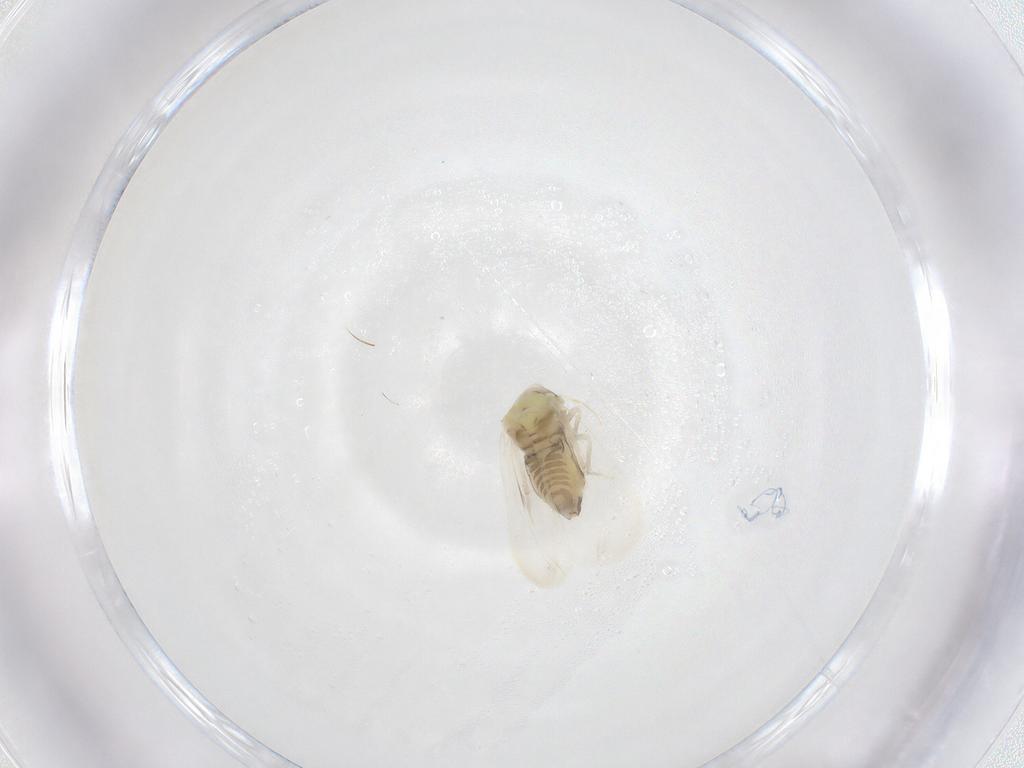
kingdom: Animalia
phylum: Arthropoda
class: Insecta
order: Hemiptera
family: Aleyrodidae
